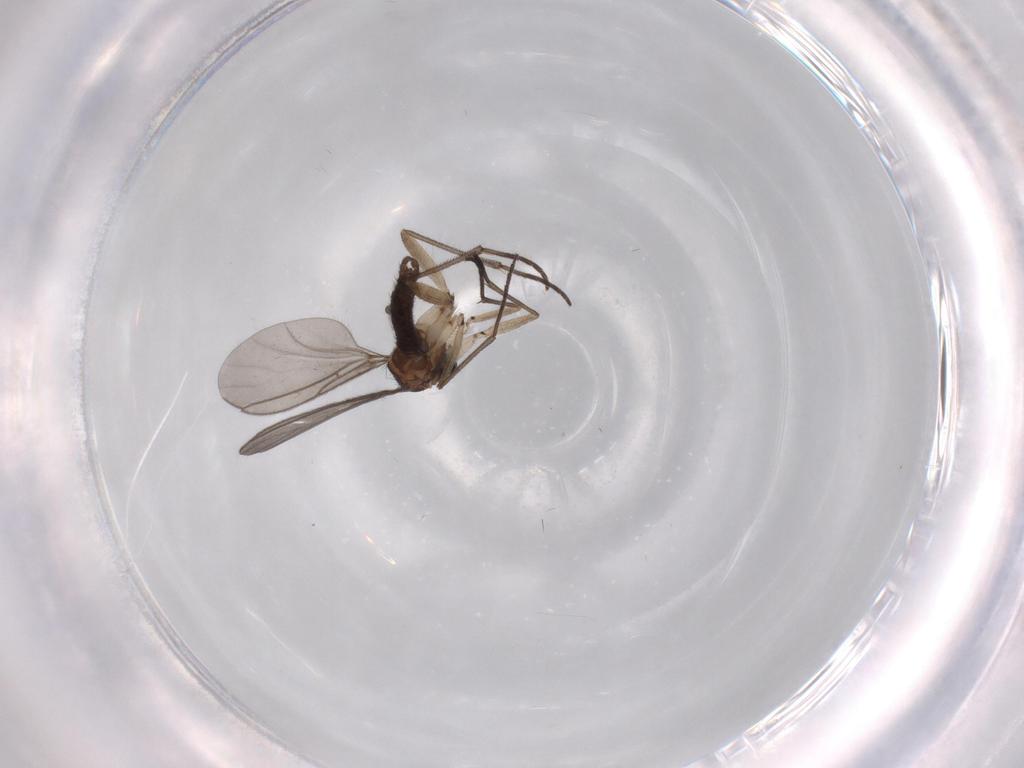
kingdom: Animalia
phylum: Arthropoda
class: Insecta
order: Diptera
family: Sciaridae
